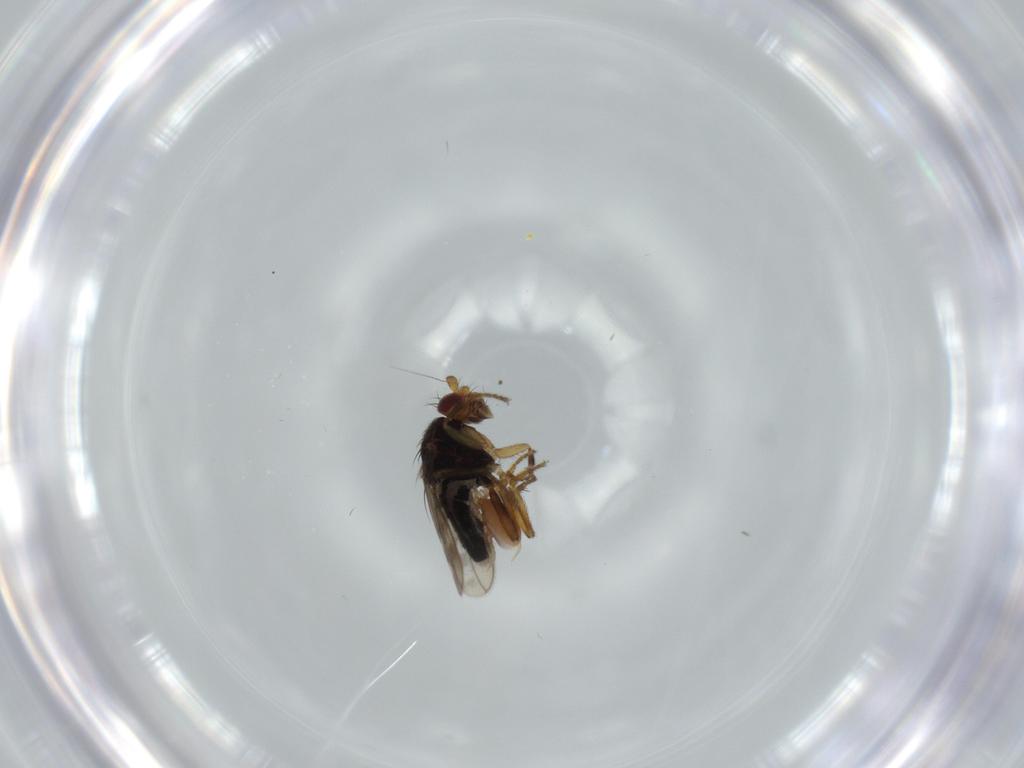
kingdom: Animalia
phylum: Arthropoda
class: Insecta
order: Diptera
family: Sphaeroceridae
